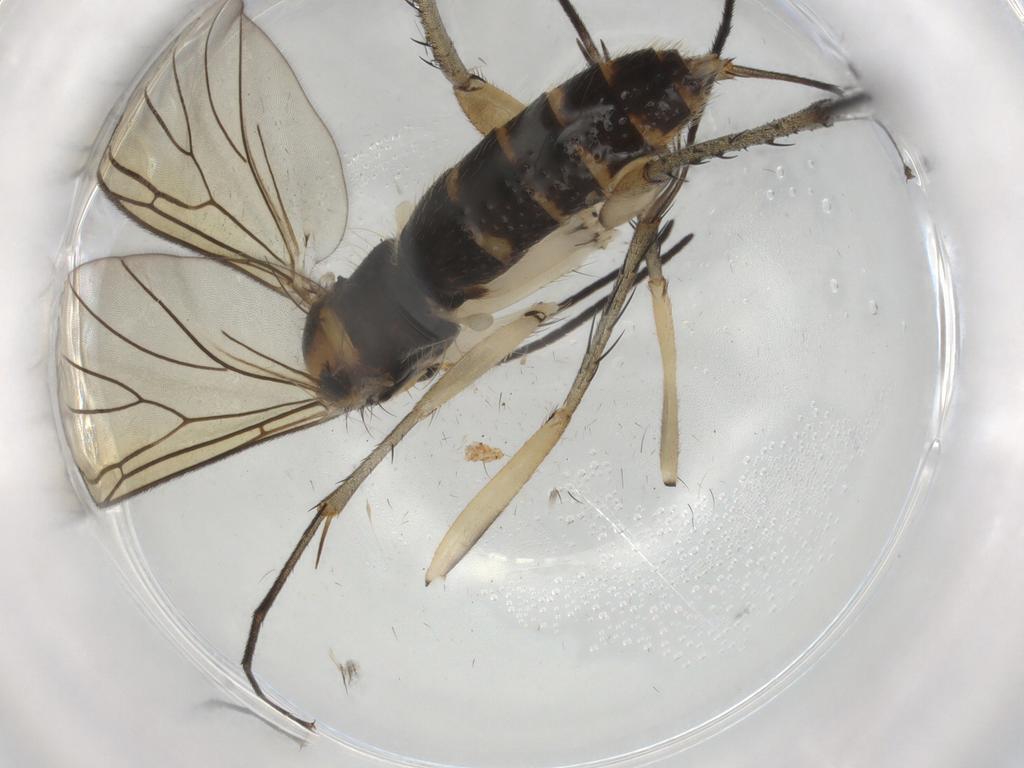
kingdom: Animalia
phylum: Arthropoda
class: Insecta
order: Diptera
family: Mycetophilidae
